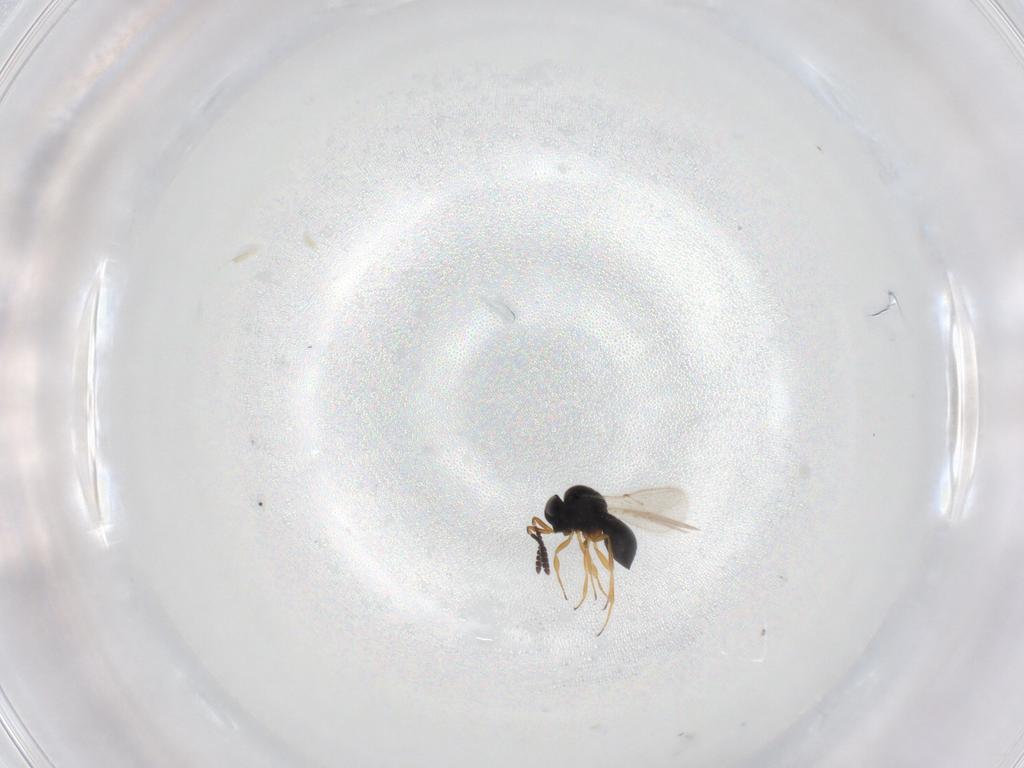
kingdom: Animalia
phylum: Arthropoda
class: Insecta
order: Hymenoptera
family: Scelionidae
